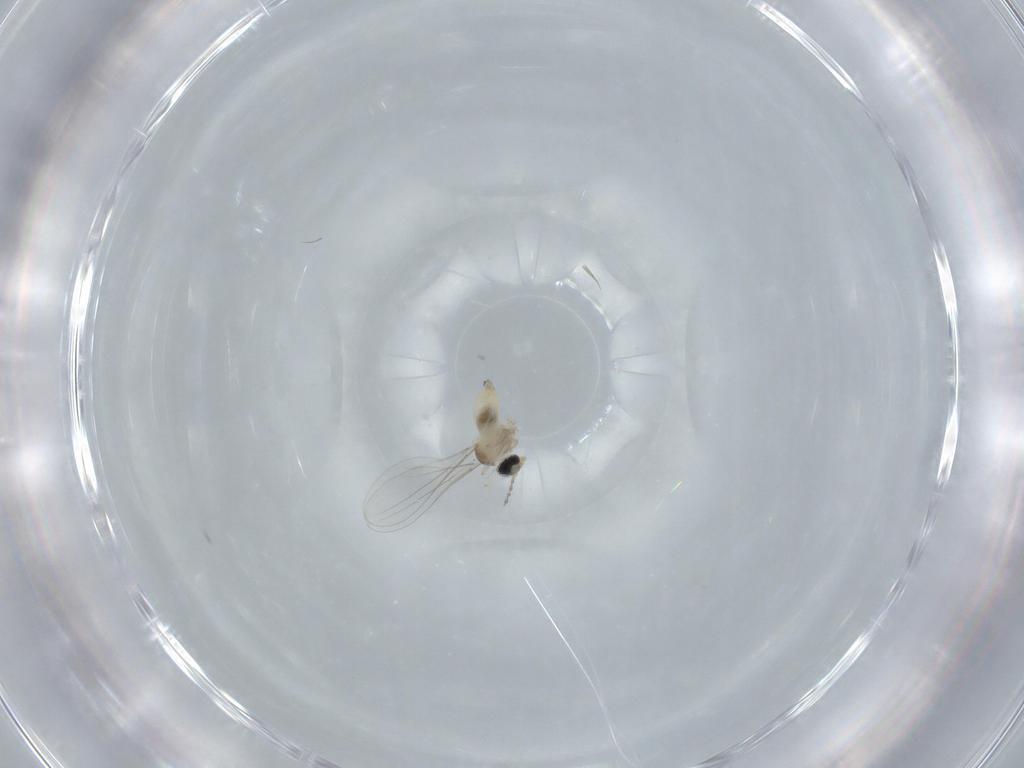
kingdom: Animalia
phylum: Arthropoda
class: Insecta
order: Diptera
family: Cecidomyiidae
